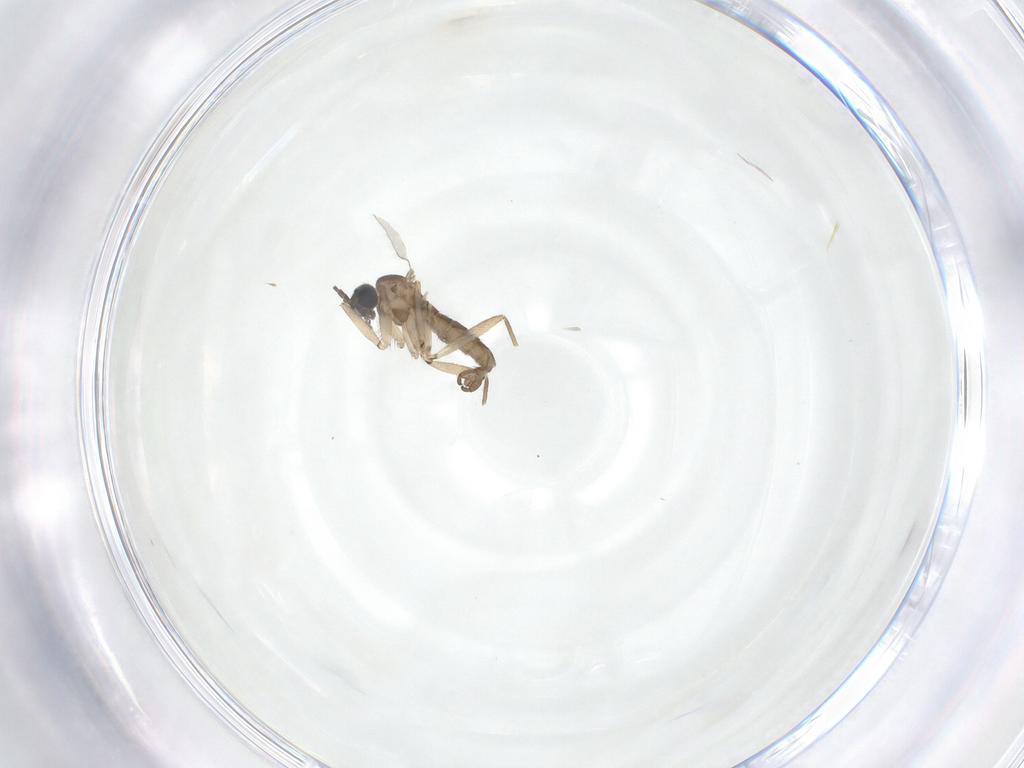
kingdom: Animalia
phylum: Arthropoda
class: Insecta
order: Diptera
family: Sciaridae
